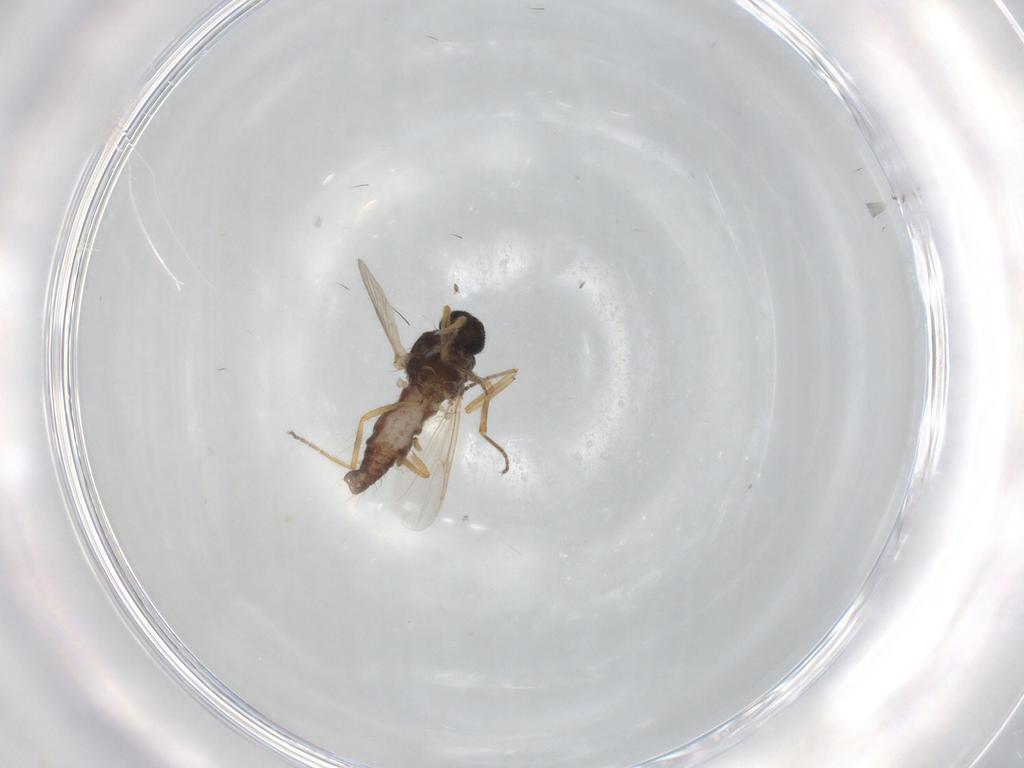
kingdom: Animalia
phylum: Arthropoda
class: Insecta
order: Diptera
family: Ceratopogonidae
